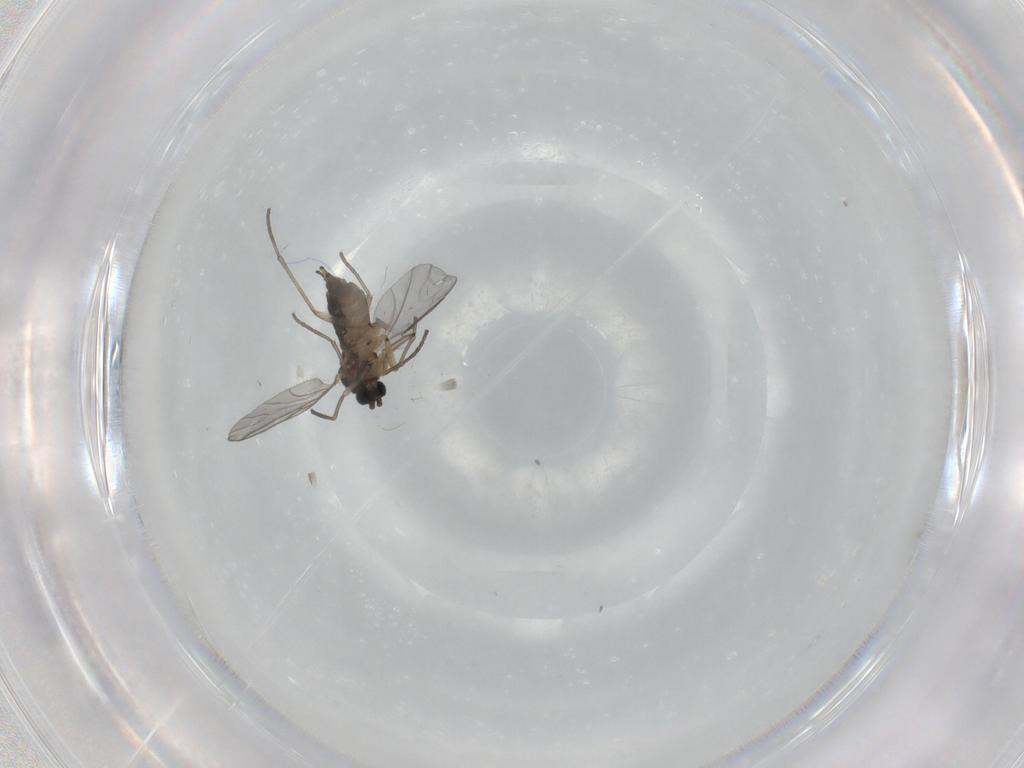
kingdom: Animalia
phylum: Arthropoda
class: Insecta
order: Diptera
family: Sciaridae
